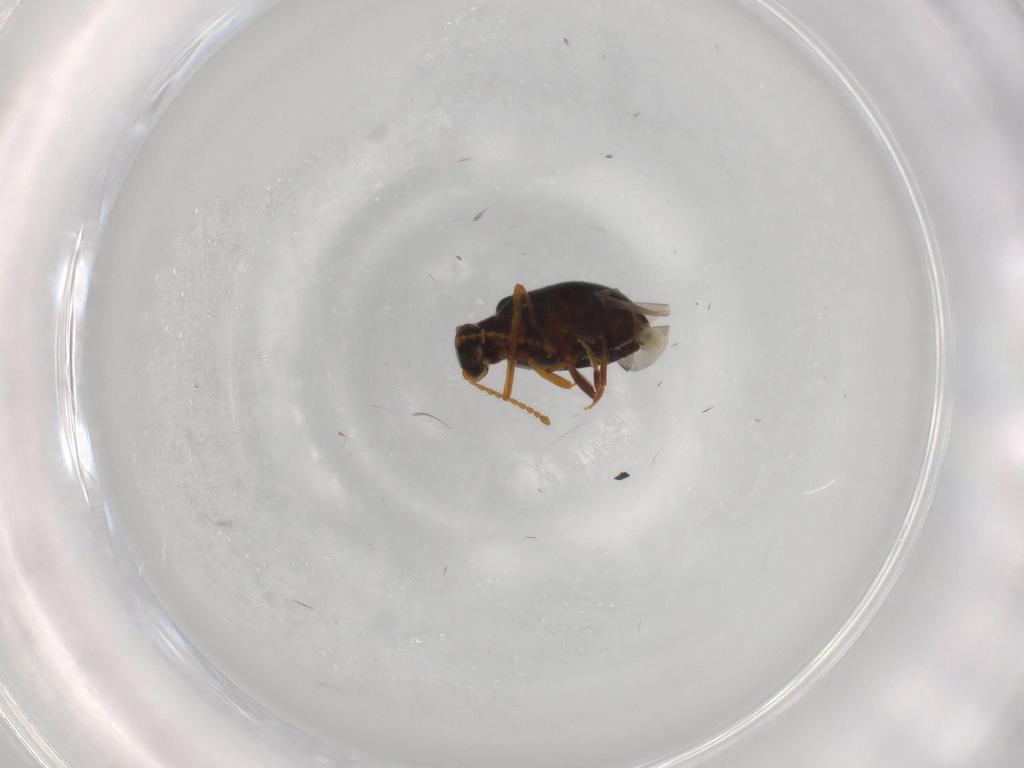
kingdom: Animalia
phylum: Arthropoda
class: Insecta
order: Coleoptera
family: Aderidae
